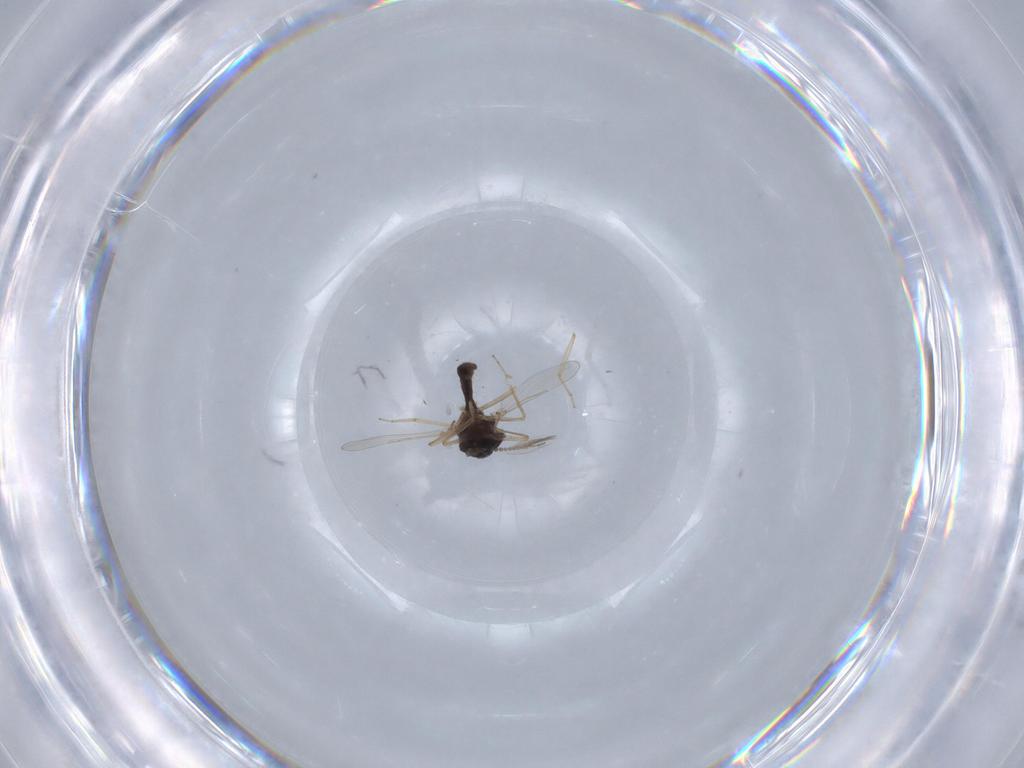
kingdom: Animalia
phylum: Arthropoda
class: Insecta
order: Diptera
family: Ceratopogonidae
